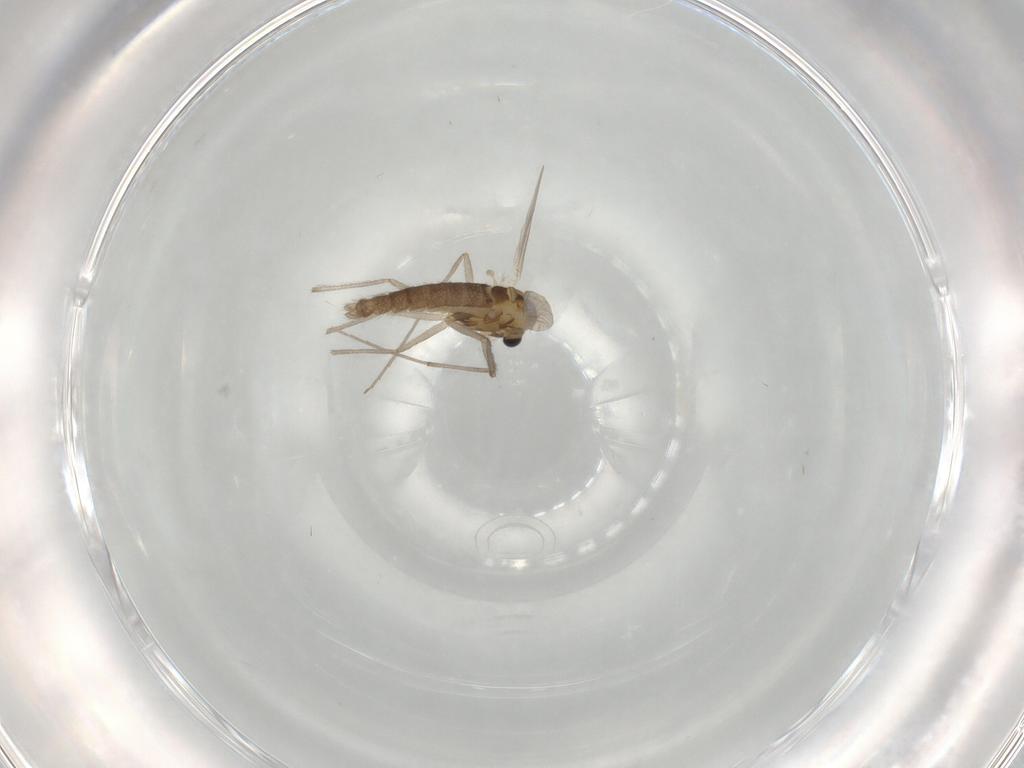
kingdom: Animalia
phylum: Arthropoda
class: Insecta
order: Diptera
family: Chironomidae
